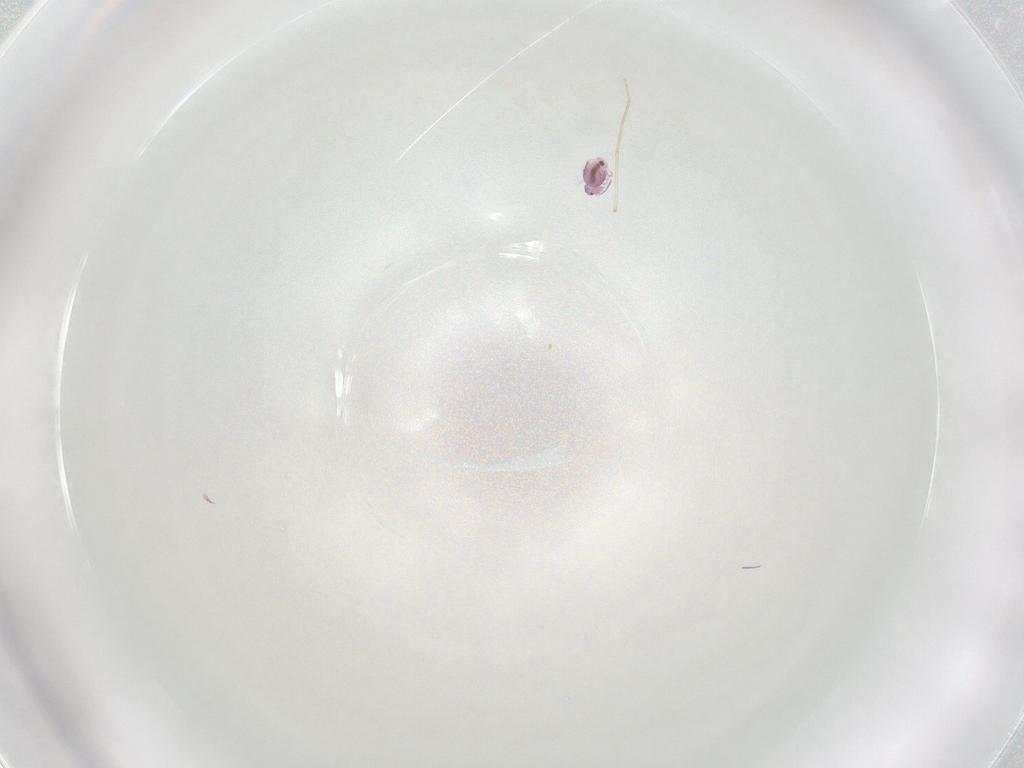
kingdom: Animalia
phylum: Arthropoda
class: Collembola
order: Symphypleona
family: Sminthurididae
